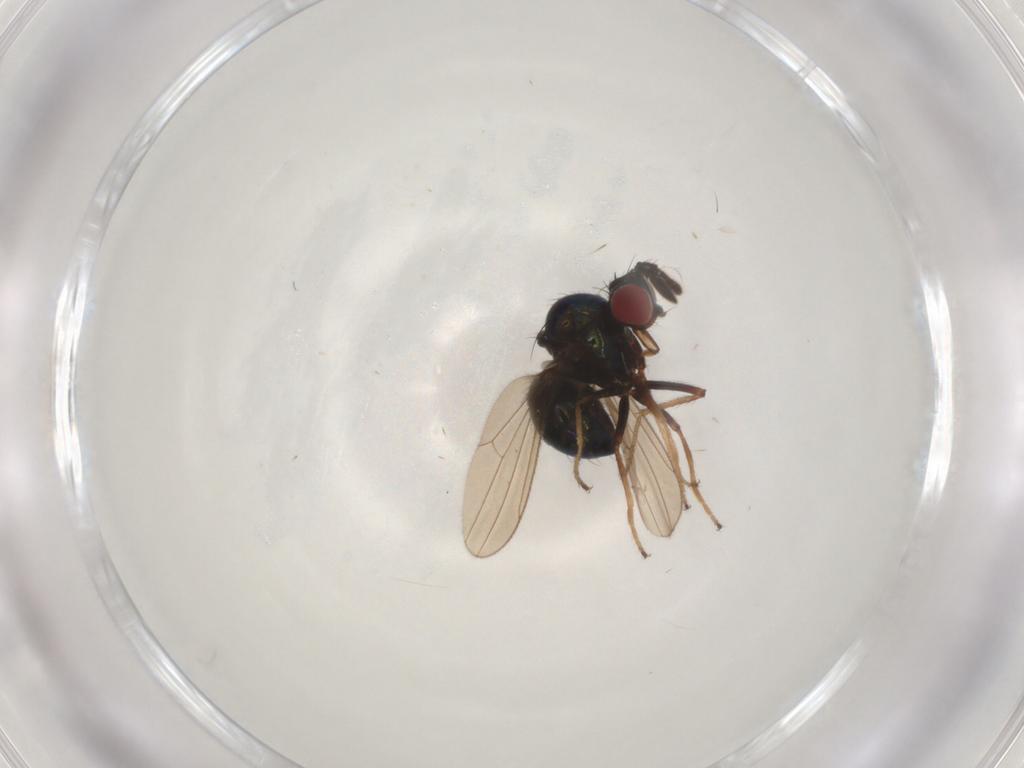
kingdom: Animalia
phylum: Arthropoda
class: Insecta
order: Diptera
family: Ephydridae
